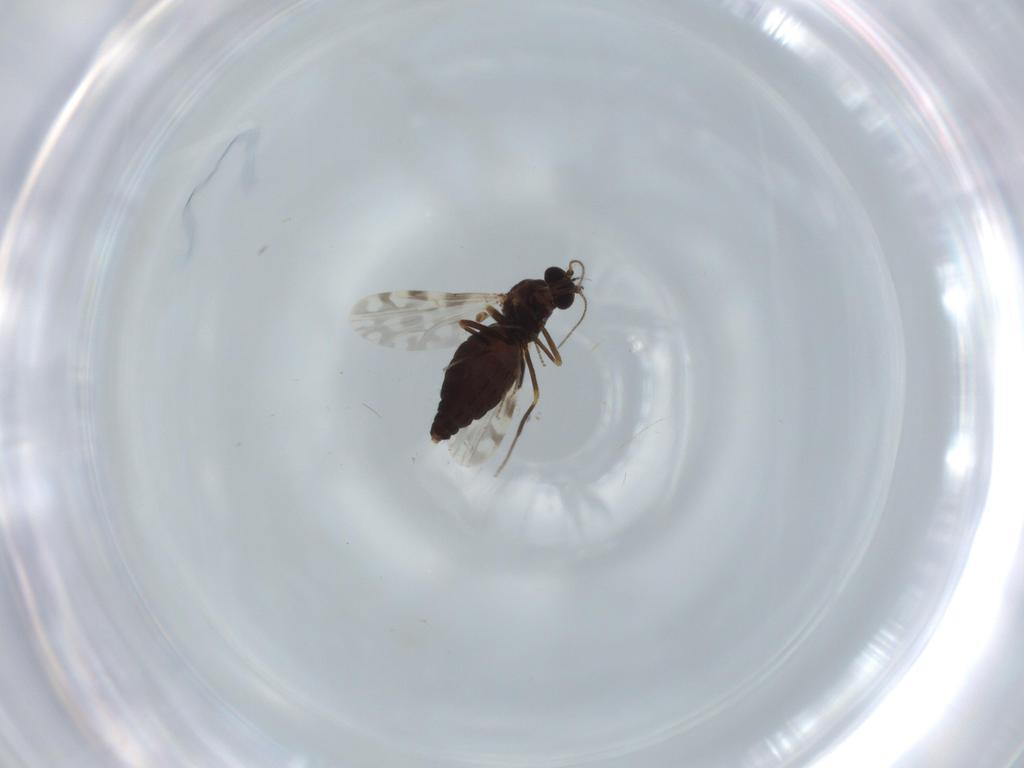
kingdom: Animalia
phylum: Arthropoda
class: Insecta
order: Diptera
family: Ceratopogonidae
